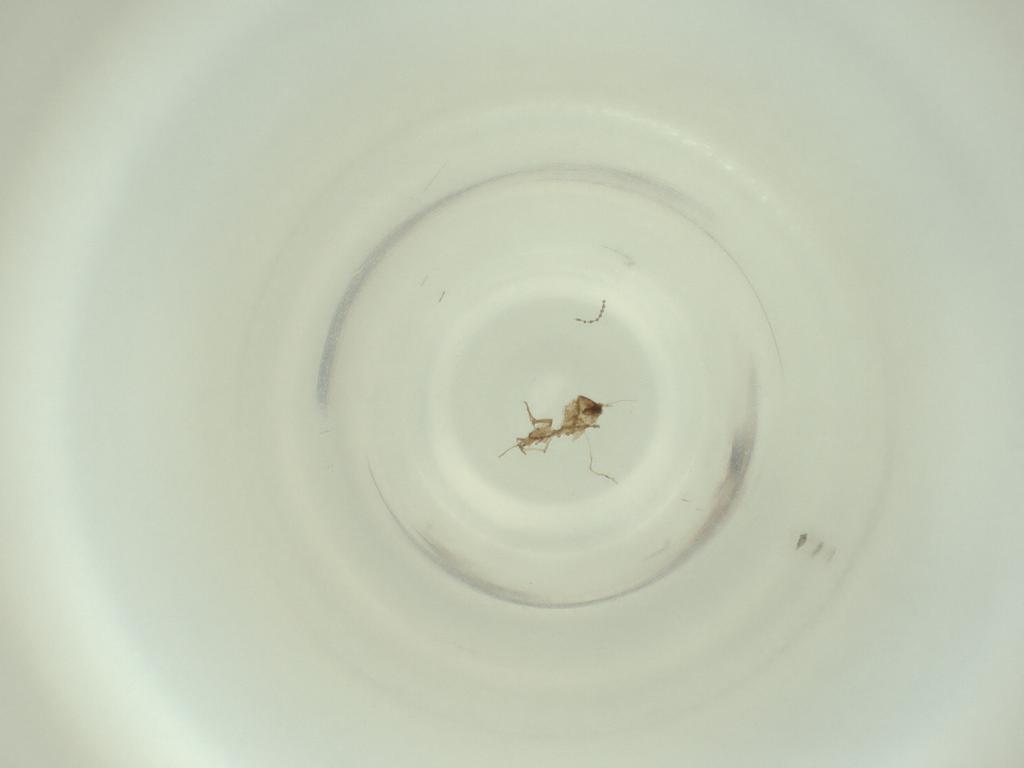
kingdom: Animalia
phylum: Arthropoda
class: Insecta
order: Diptera
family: Cecidomyiidae
